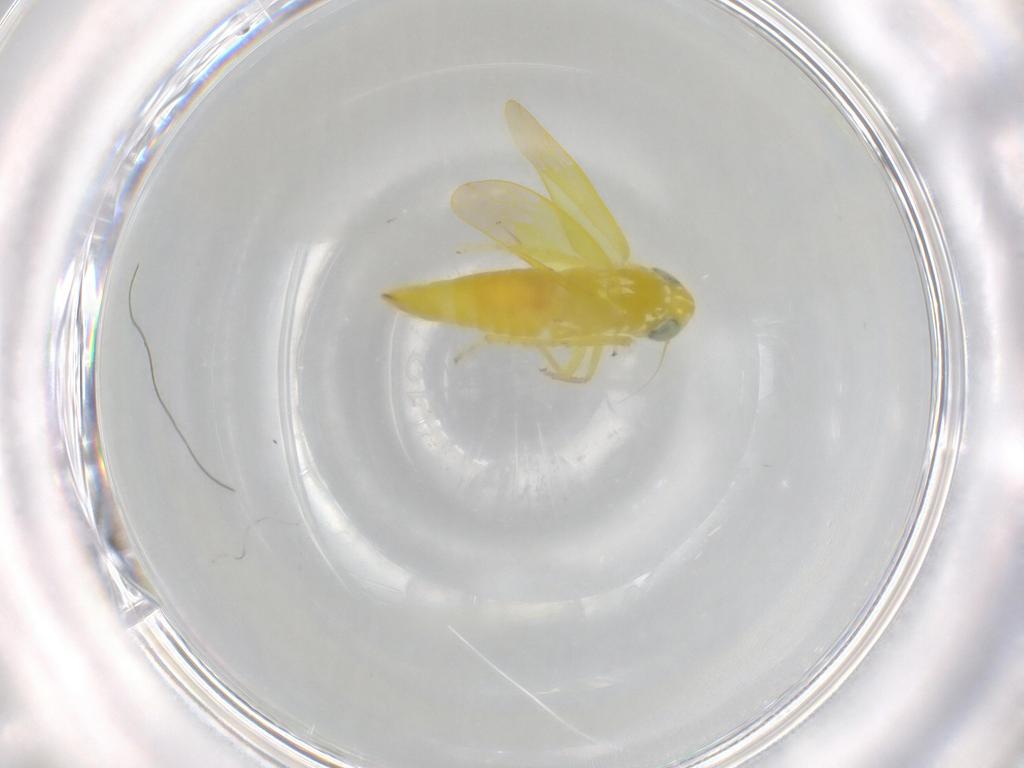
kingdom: Animalia
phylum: Arthropoda
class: Insecta
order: Hemiptera
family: Cicadellidae
